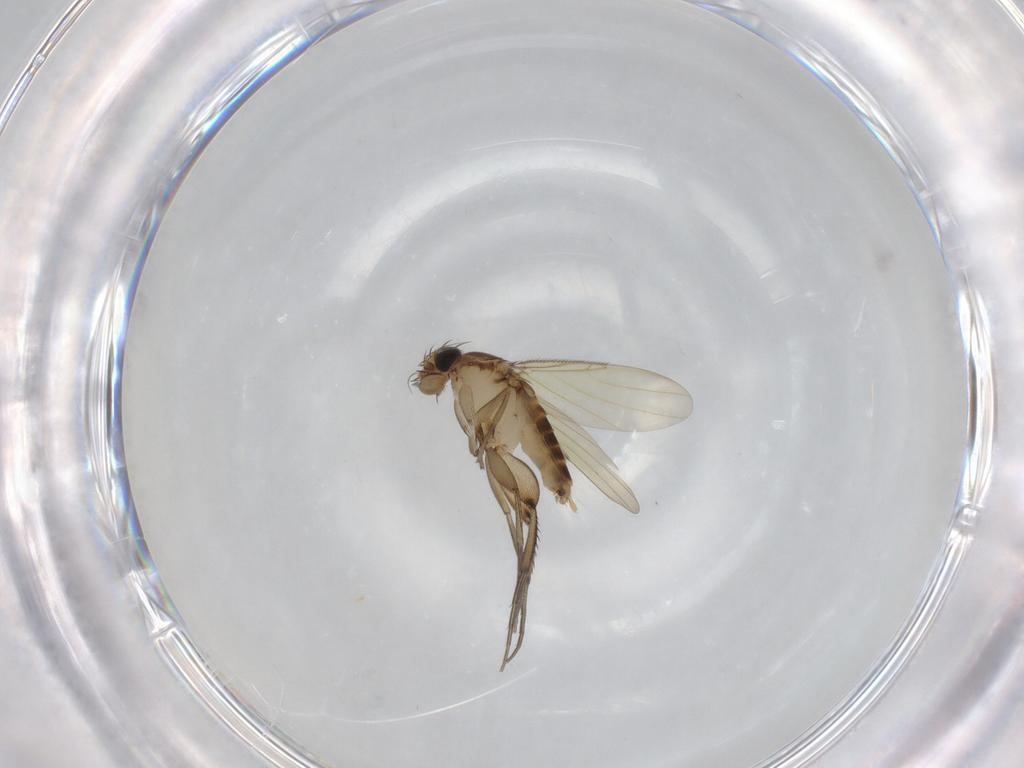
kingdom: Animalia
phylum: Arthropoda
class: Insecta
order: Diptera
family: Phoridae
